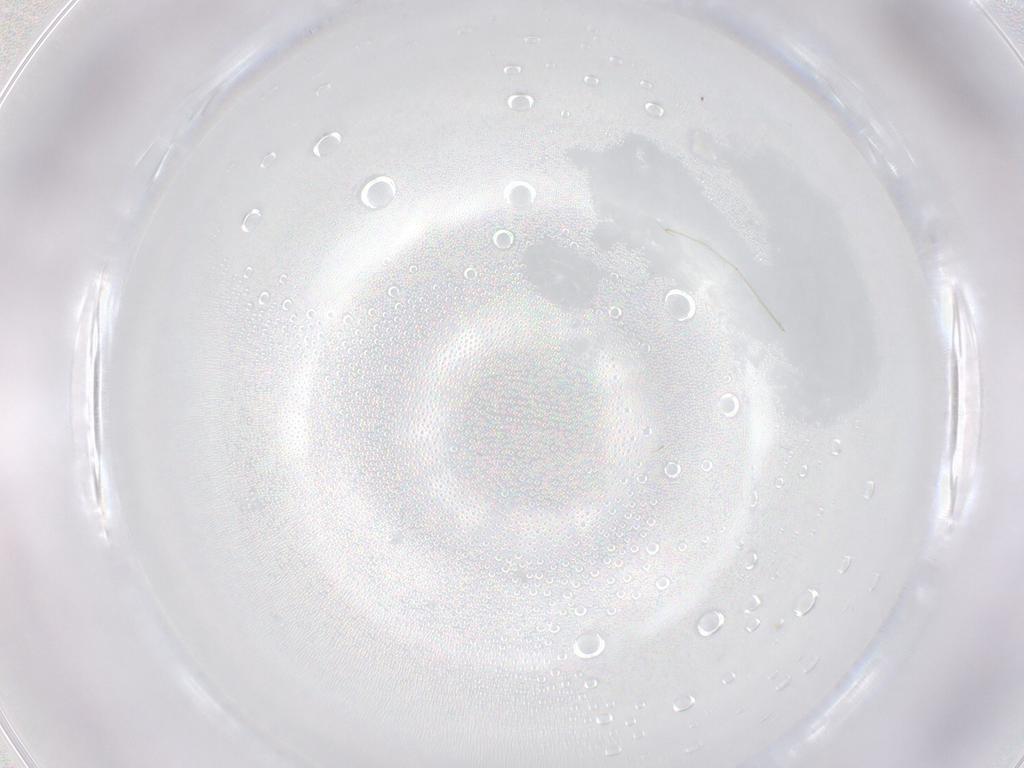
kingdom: Animalia
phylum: Arthropoda
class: Insecta
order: Diptera
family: Cecidomyiidae
